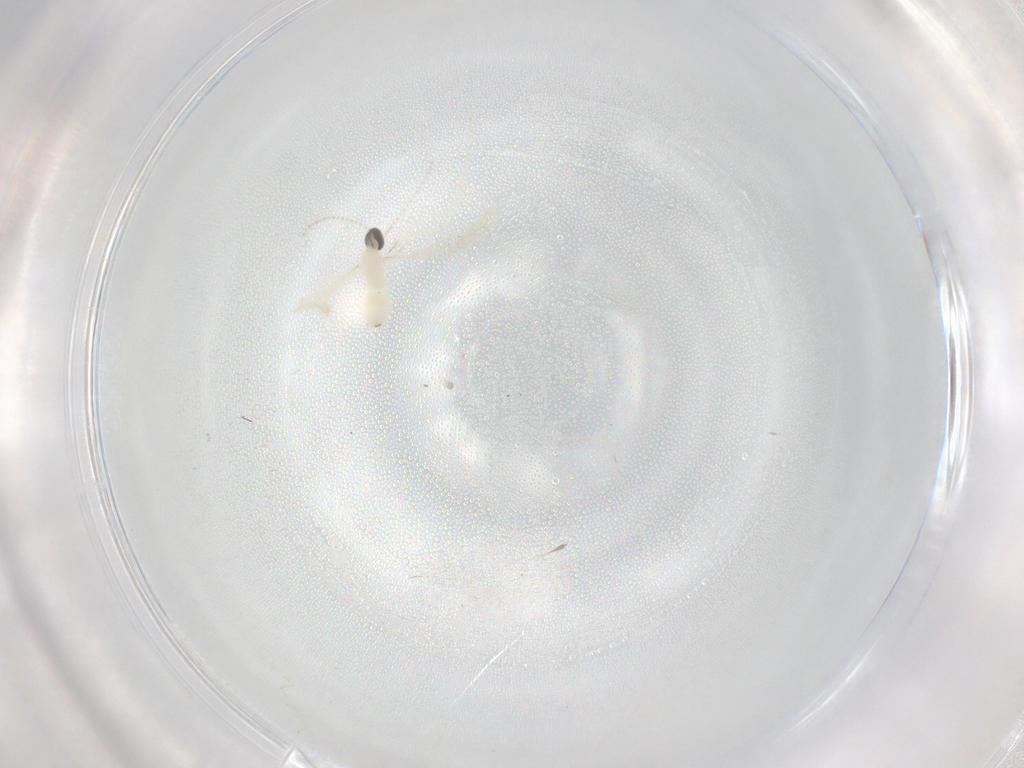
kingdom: Animalia
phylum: Arthropoda
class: Insecta
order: Diptera
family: Cecidomyiidae
